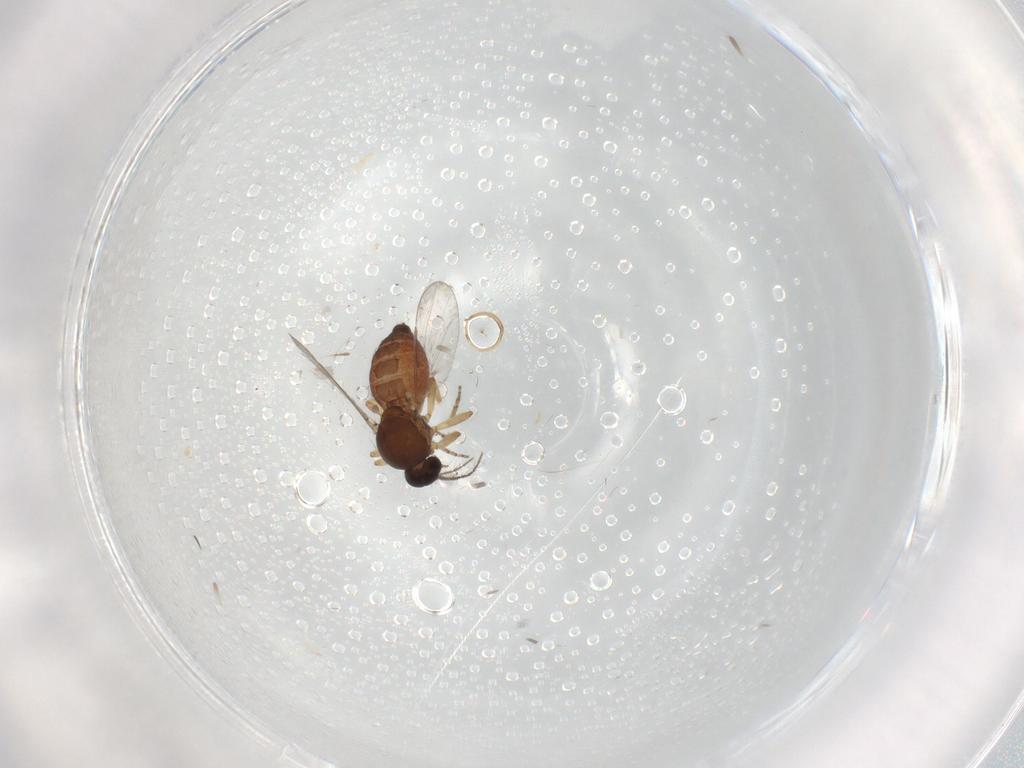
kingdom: Animalia
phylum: Arthropoda
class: Insecta
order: Diptera
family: Ceratopogonidae
